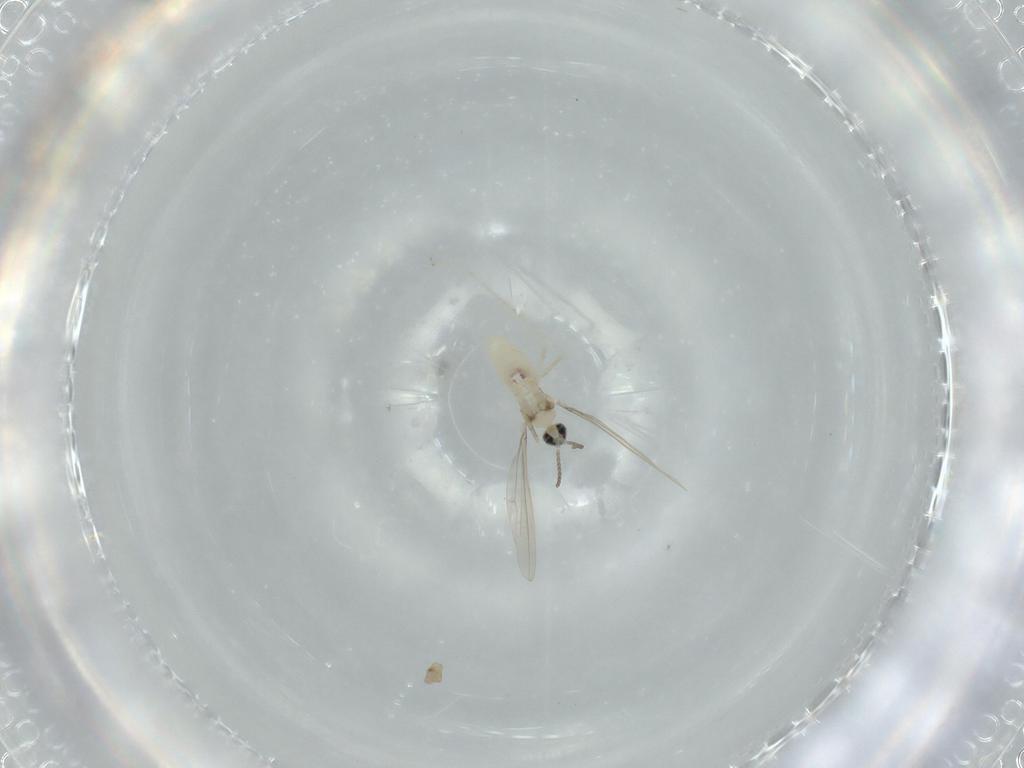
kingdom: Animalia
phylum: Arthropoda
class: Insecta
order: Diptera
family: Cecidomyiidae
